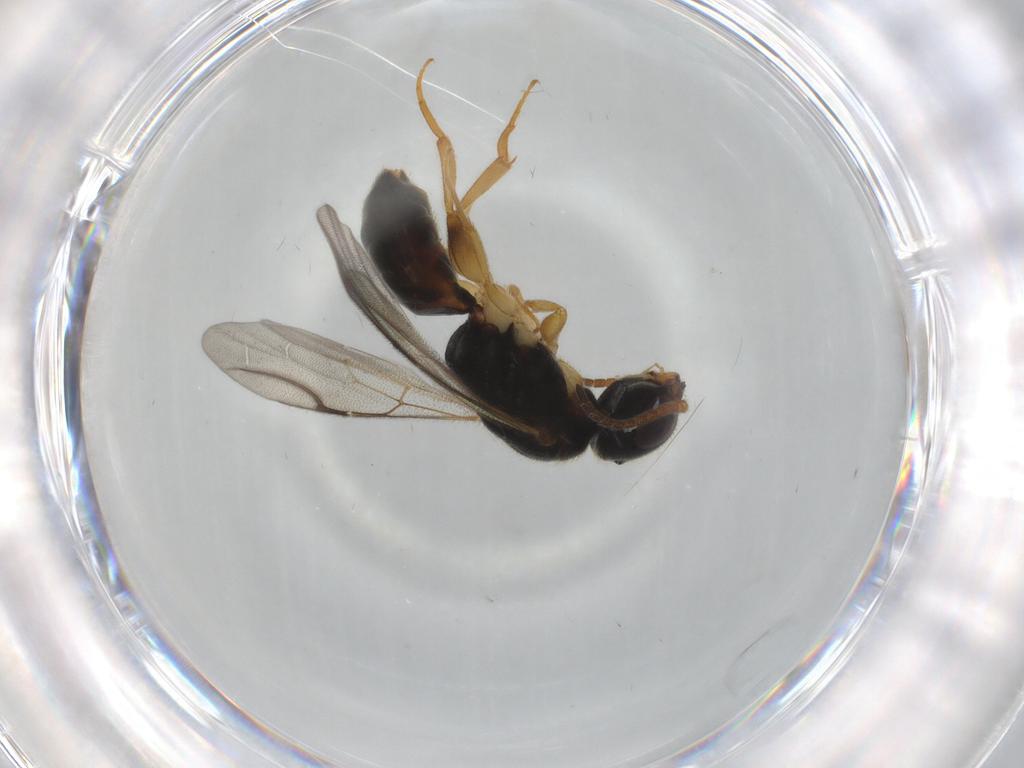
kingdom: Animalia
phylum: Arthropoda
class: Insecta
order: Hymenoptera
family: Bethylidae
